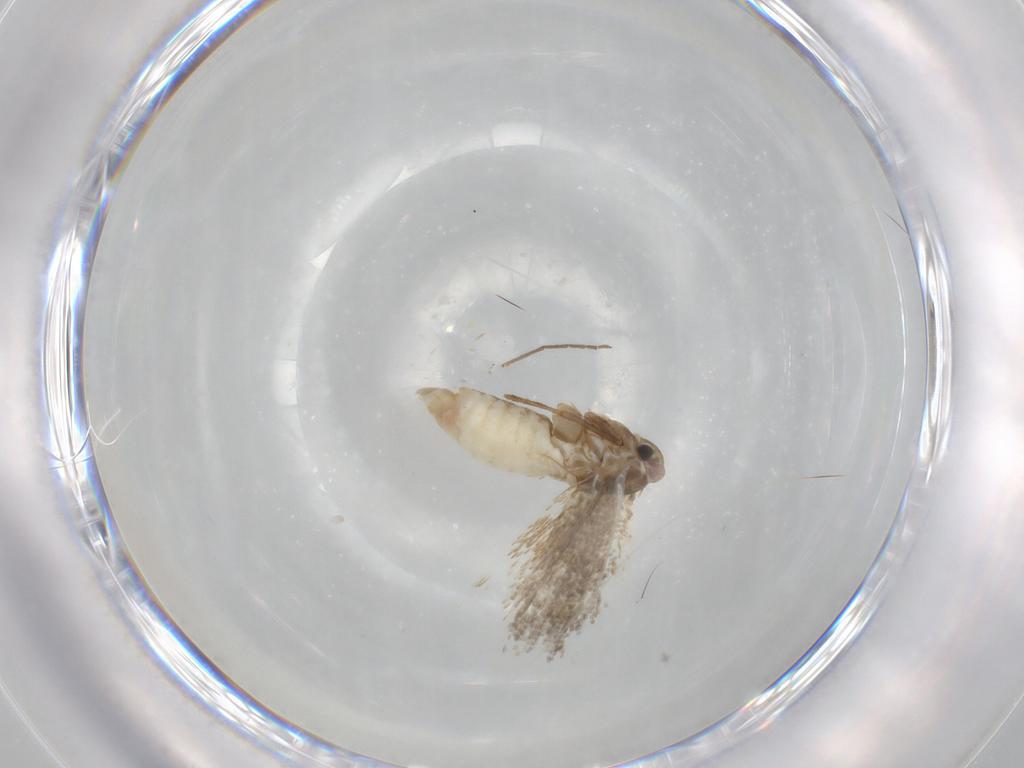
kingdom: Animalia
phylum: Arthropoda
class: Insecta
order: Lepidoptera
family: Bucculatricidae
